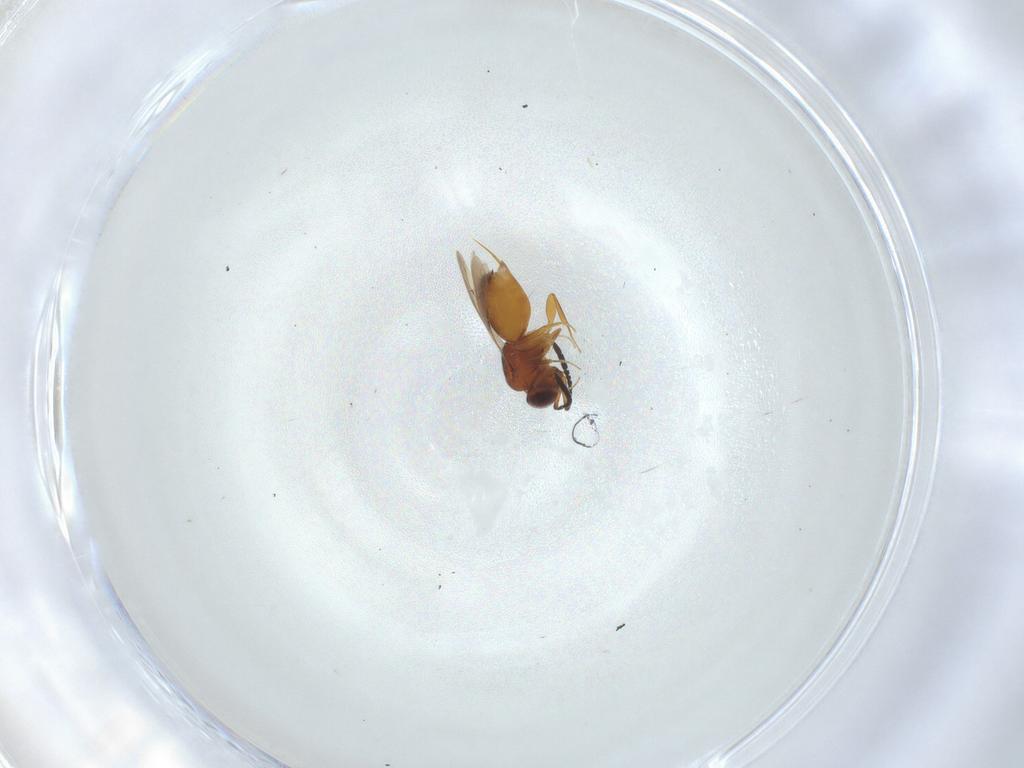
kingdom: Animalia
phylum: Arthropoda
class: Insecta
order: Hymenoptera
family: Ceraphronidae
